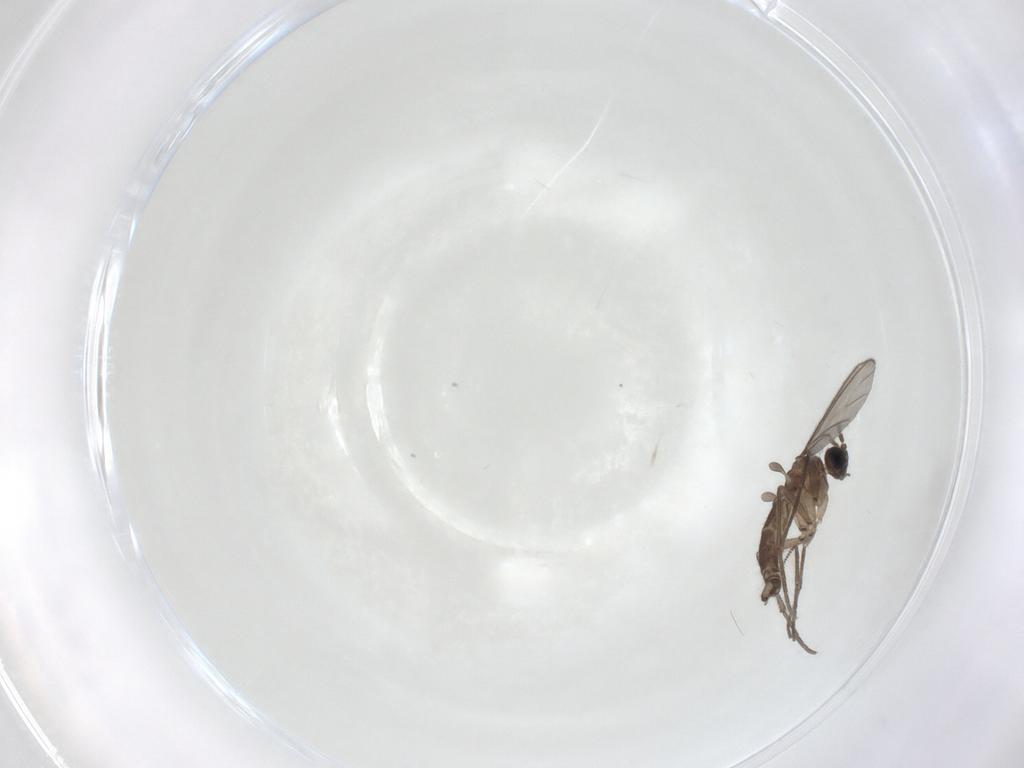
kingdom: Animalia
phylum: Arthropoda
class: Insecta
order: Diptera
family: Sciaridae
